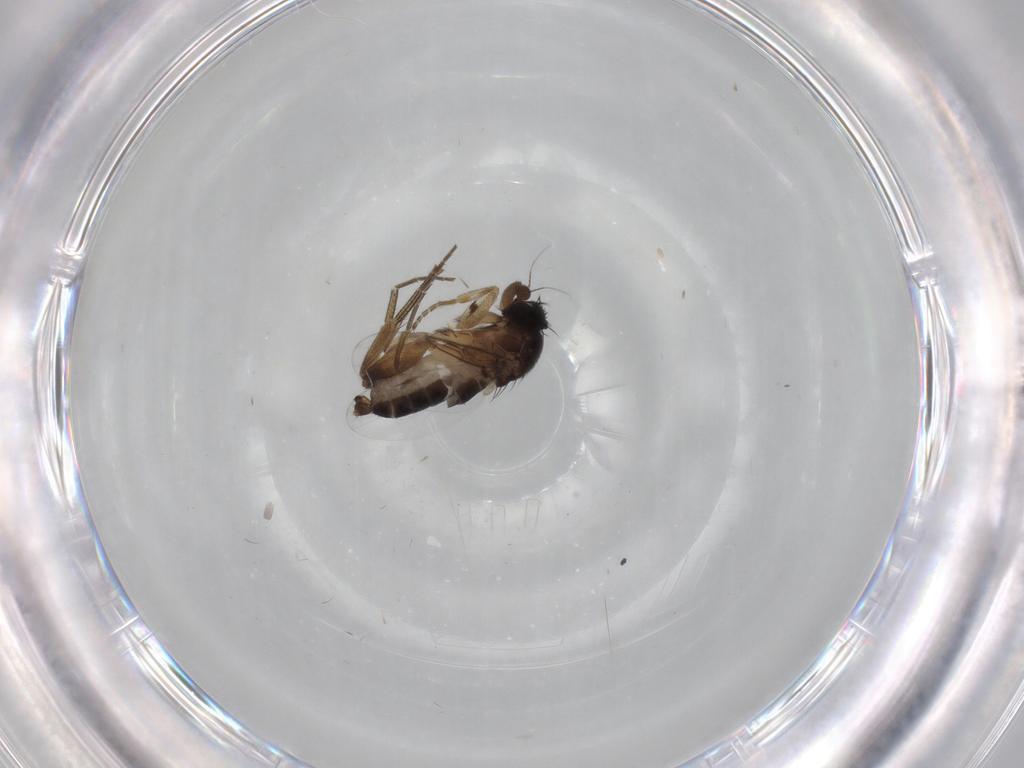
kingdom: Animalia
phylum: Arthropoda
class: Insecta
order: Diptera
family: Phoridae
